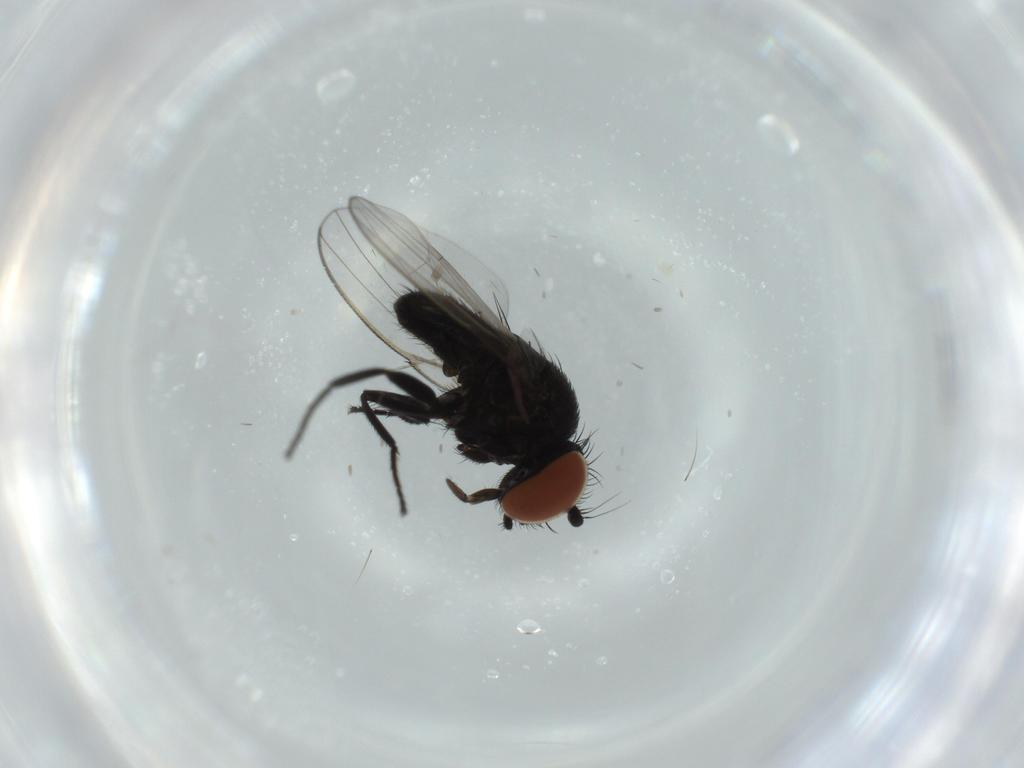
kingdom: Animalia
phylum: Arthropoda
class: Insecta
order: Diptera
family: Milichiidae
